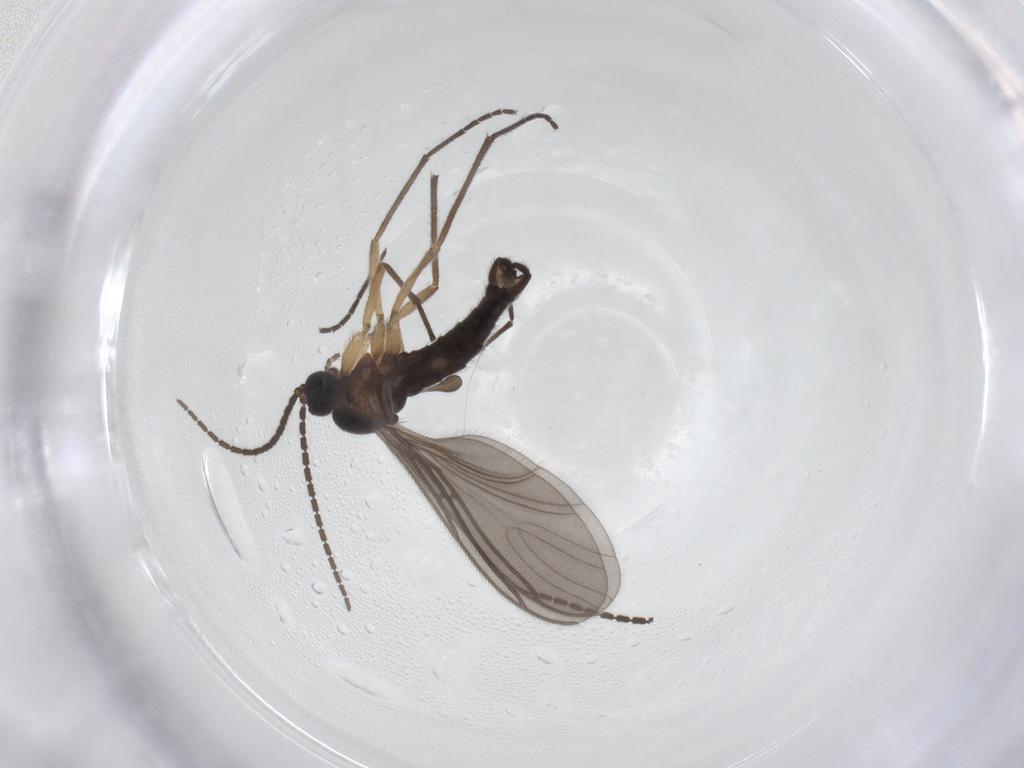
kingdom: Animalia
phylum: Arthropoda
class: Insecta
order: Diptera
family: Sciaridae
